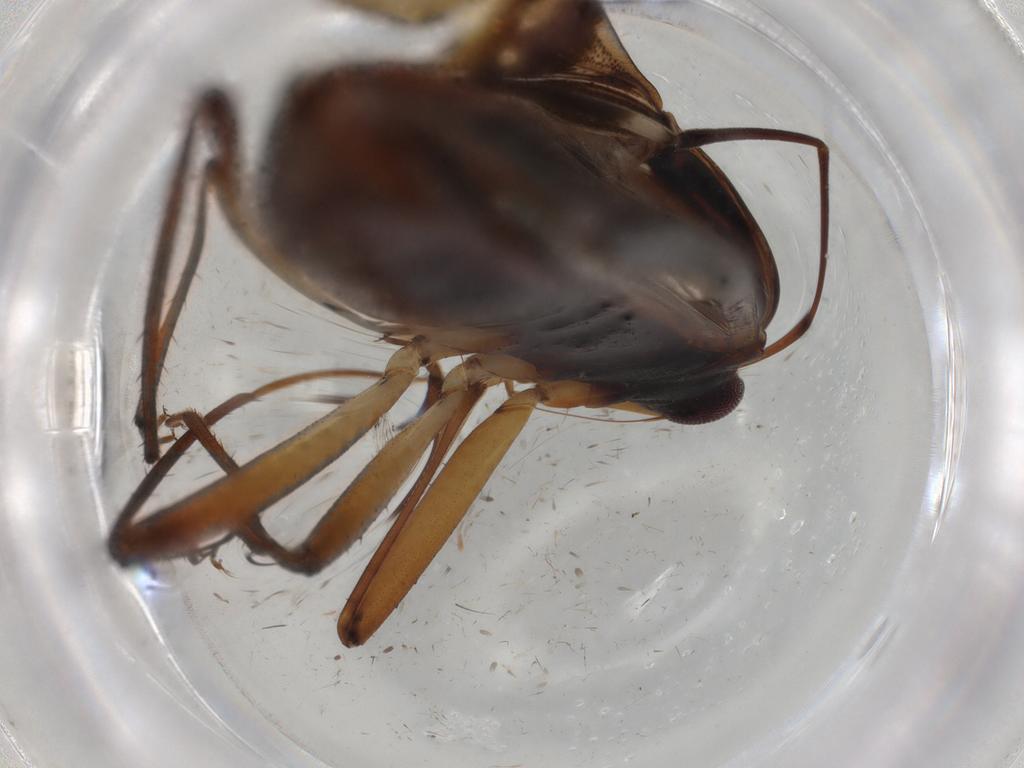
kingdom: Animalia
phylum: Arthropoda
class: Insecta
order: Hemiptera
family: Rhyparochromidae
